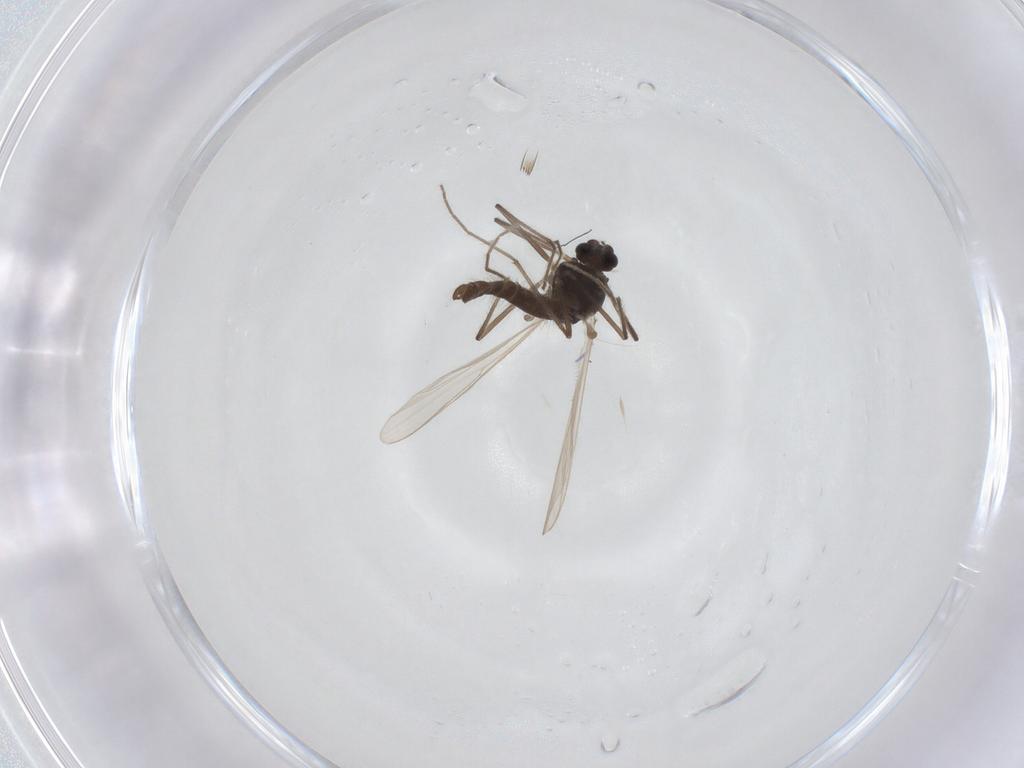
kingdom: Animalia
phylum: Arthropoda
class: Insecta
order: Diptera
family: Chironomidae
